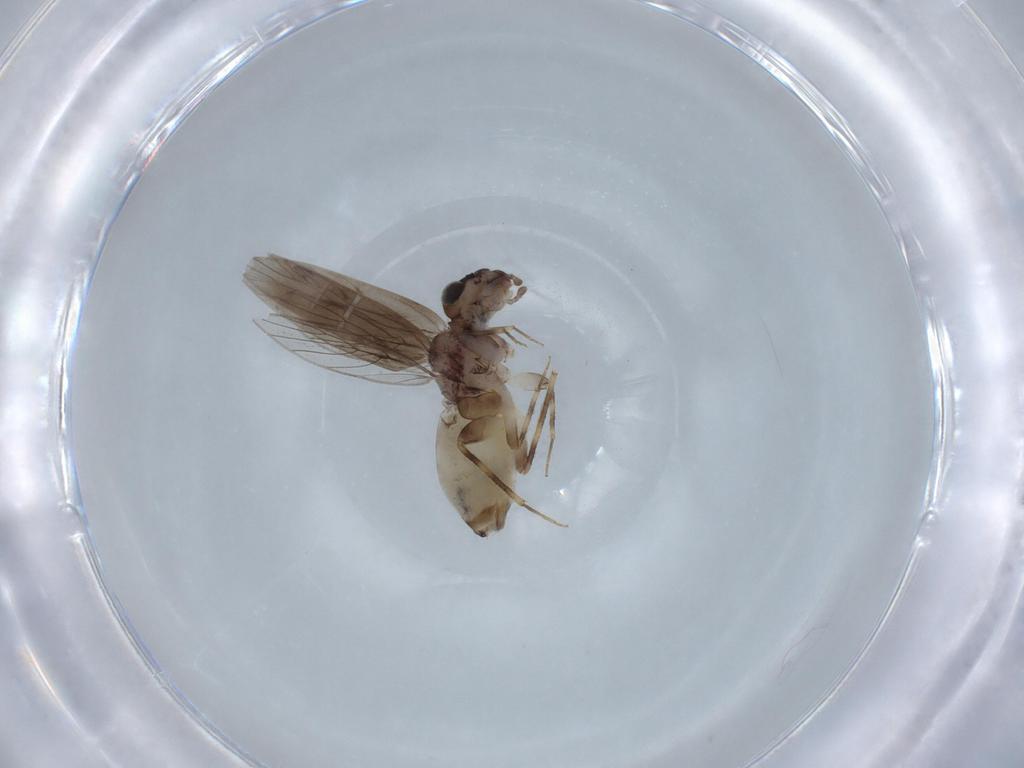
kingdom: Animalia
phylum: Arthropoda
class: Insecta
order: Psocodea
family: Lepidopsocidae
